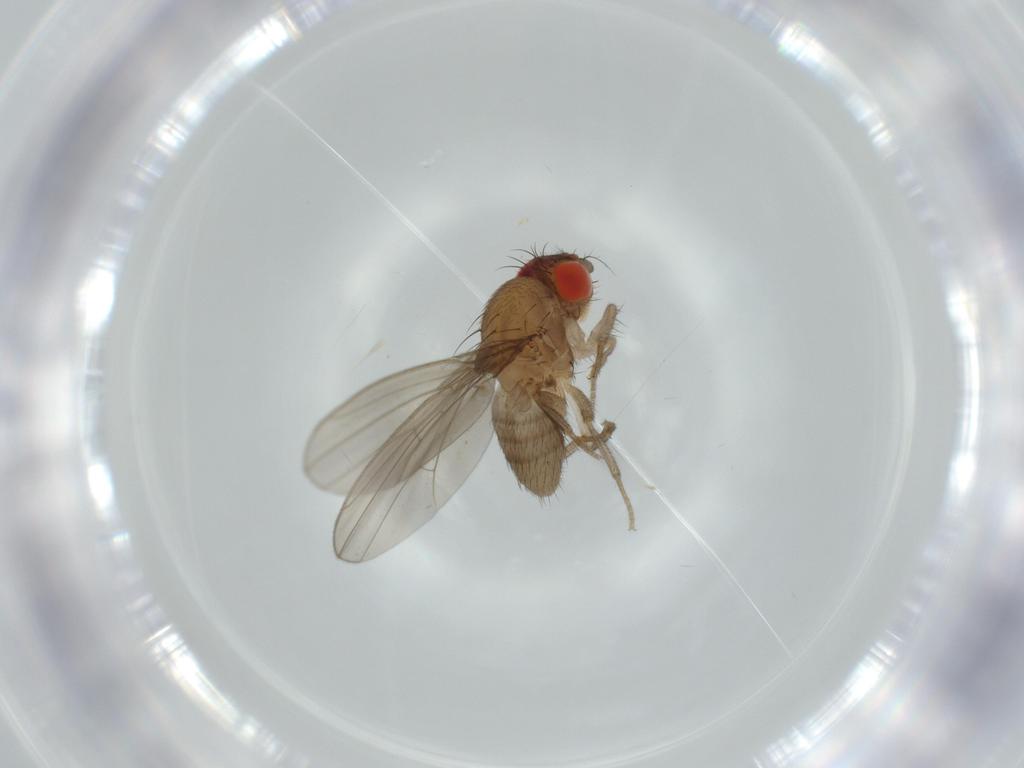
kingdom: Animalia
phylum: Arthropoda
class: Insecta
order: Diptera
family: Drosophilidae
